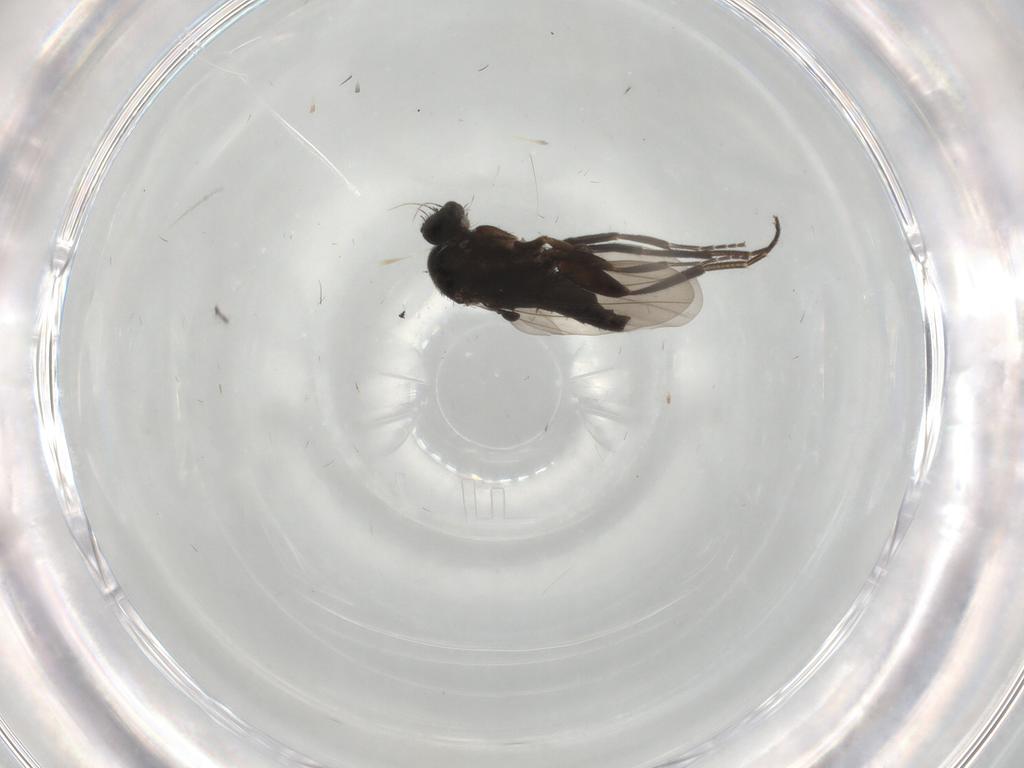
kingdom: Animalia
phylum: Arthropoda
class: Insecta
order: Diptera
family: Phoridae
